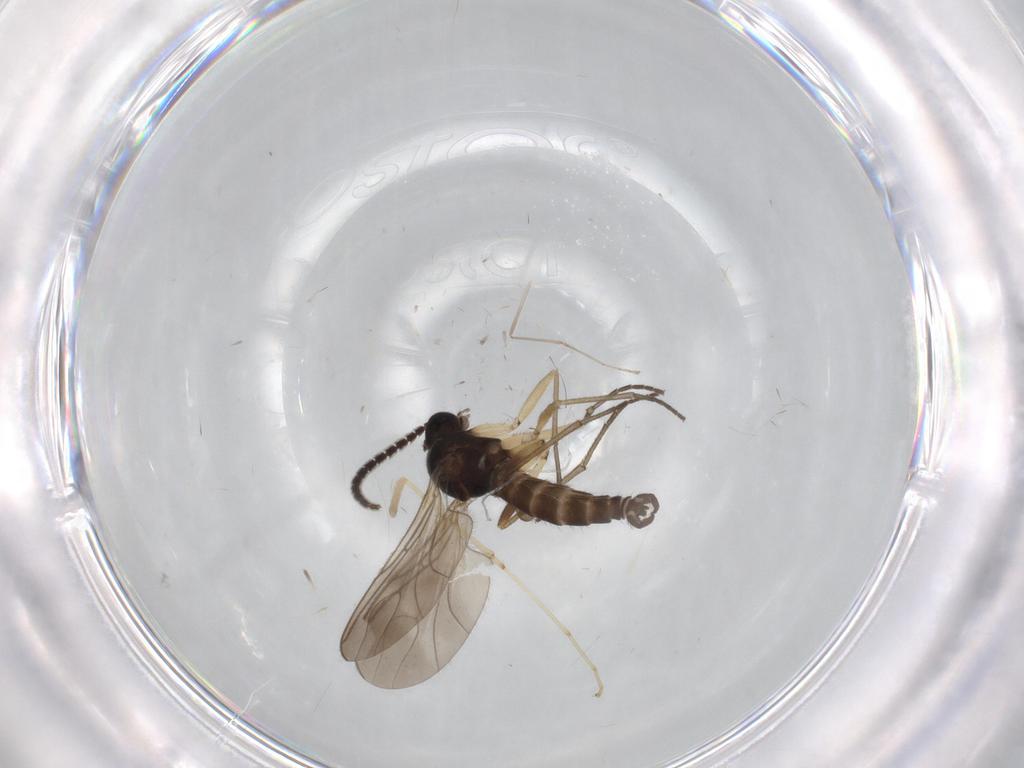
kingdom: Animalia
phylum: Arthropoda
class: Insecta
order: Diptera
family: Sciaridae
